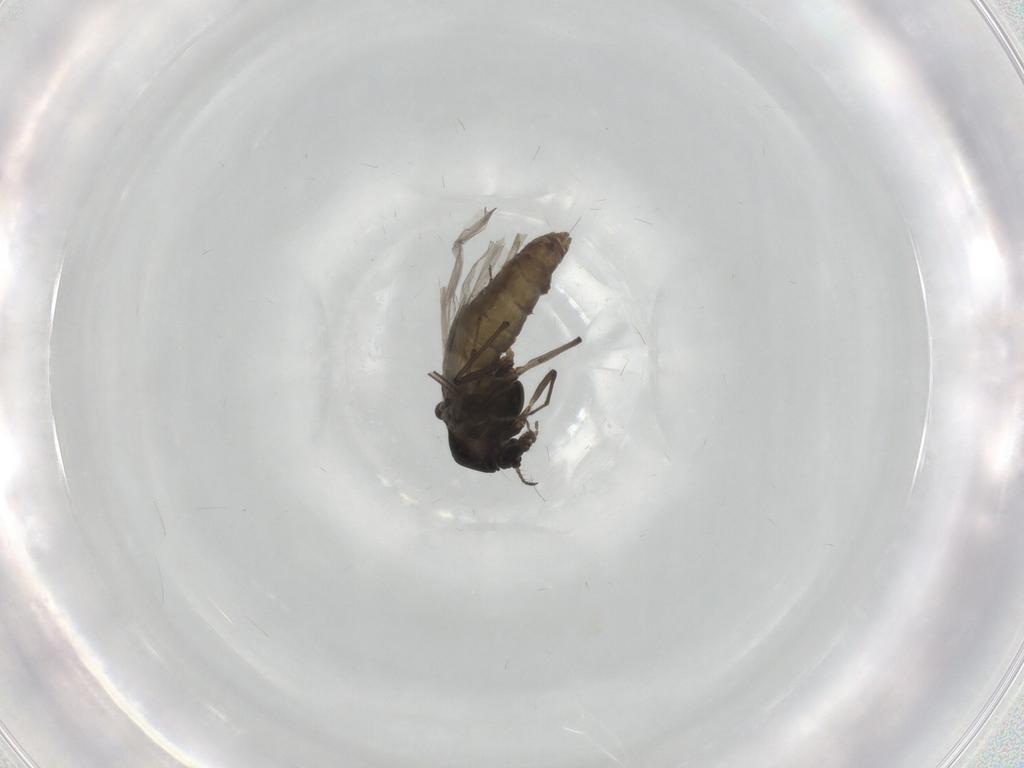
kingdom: Animalia
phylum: Arthropoda
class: Insecta
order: Diptera
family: Chironomidae
